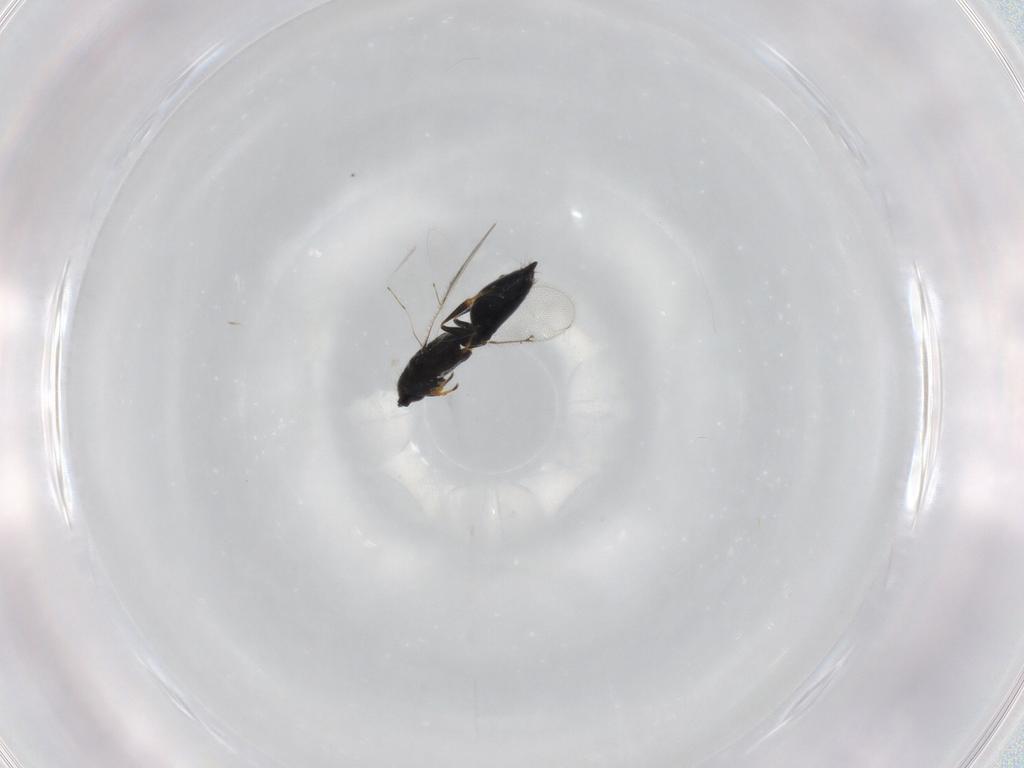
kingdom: Animalia
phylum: Arthropoda
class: Insecta
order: Hymenoptera
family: Spalangiidae
